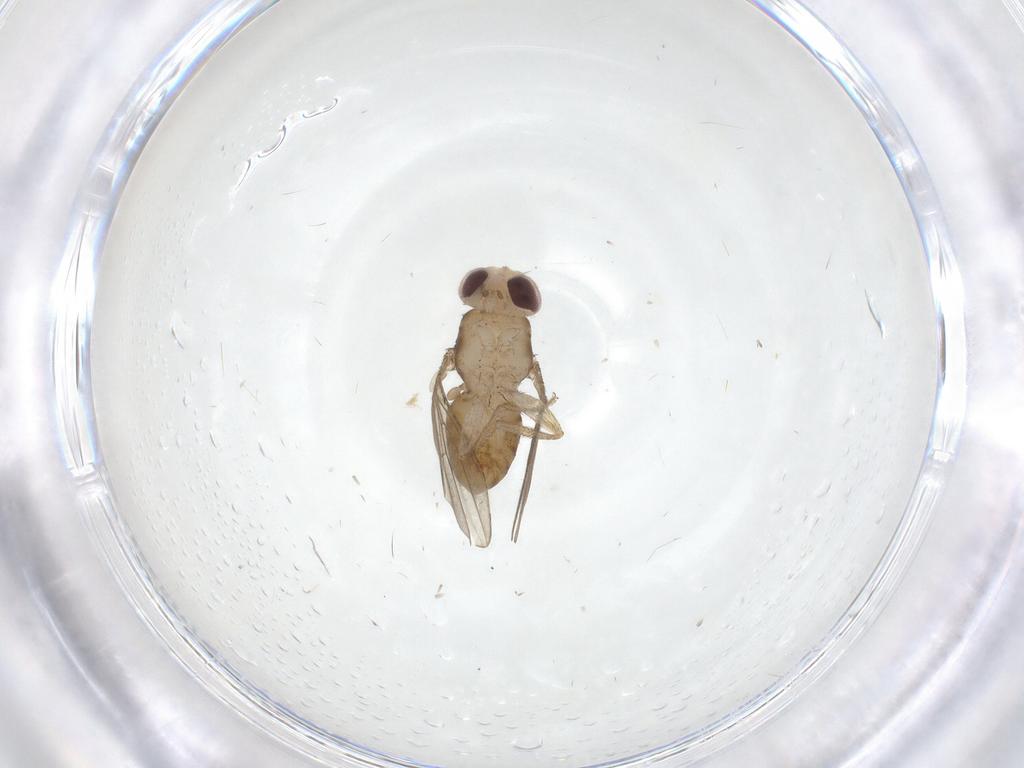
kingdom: Animalia
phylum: Arthropoda
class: Insecta
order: Diptera
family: Drosophilidae
